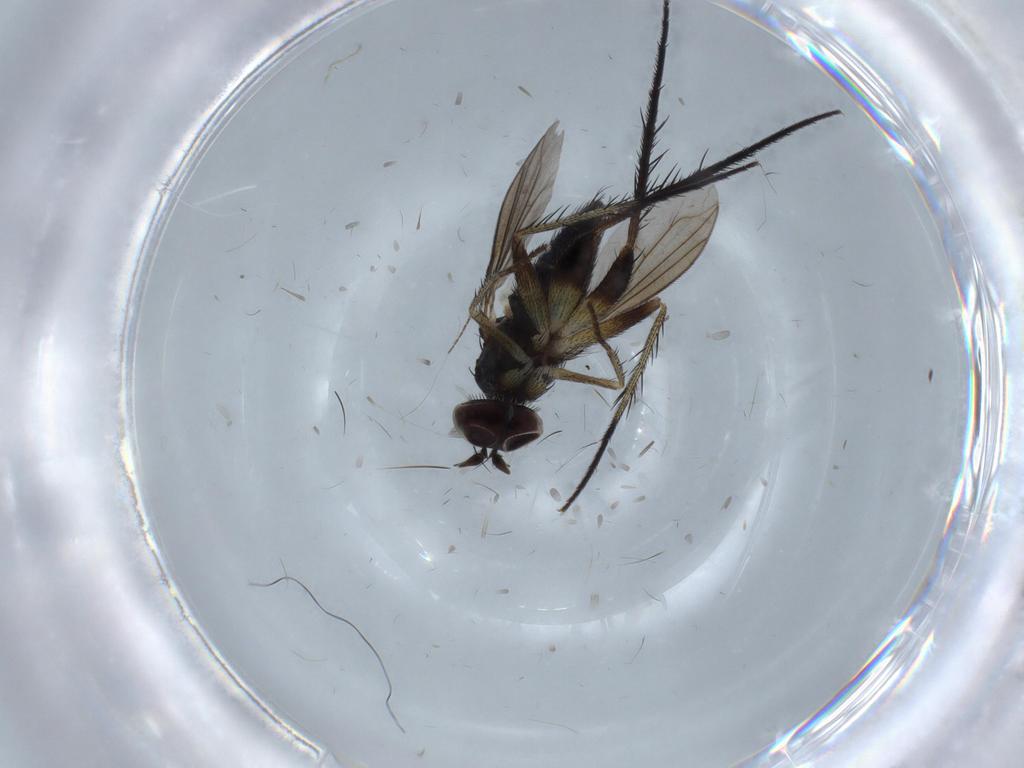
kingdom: Animalia
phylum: Arthropoda
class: Insecta
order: Diptera
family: Dolichopodidae
